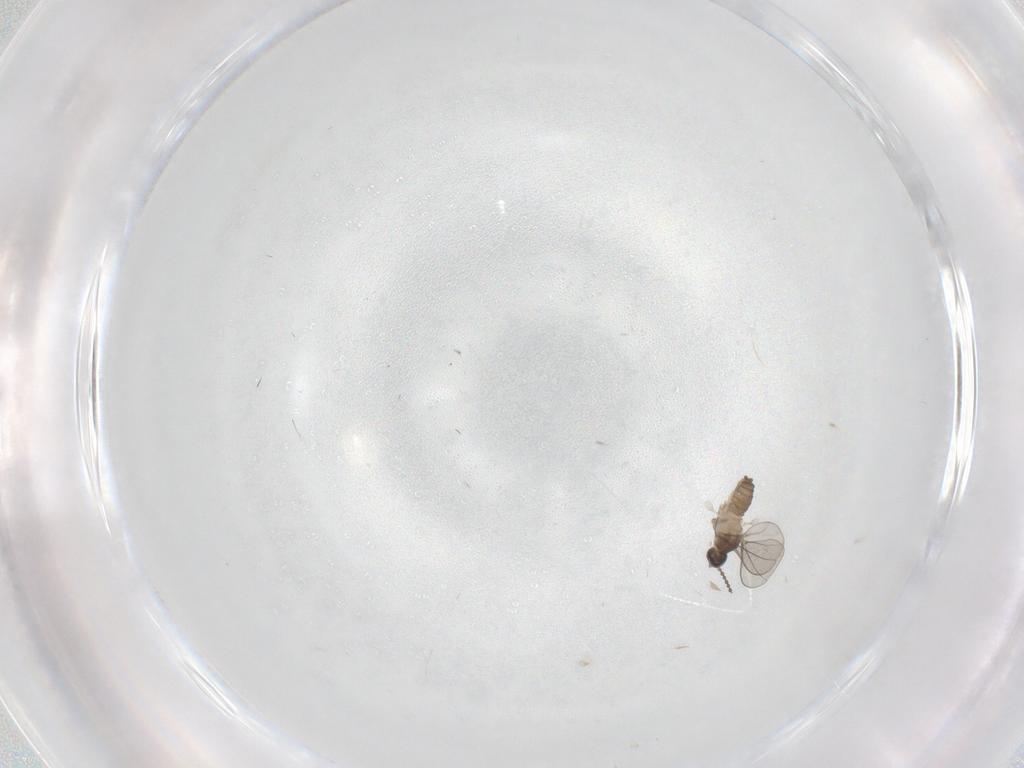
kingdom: Animalia
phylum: Arthropoda
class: Insecta
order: Diptera
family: Cecidomyiidae
